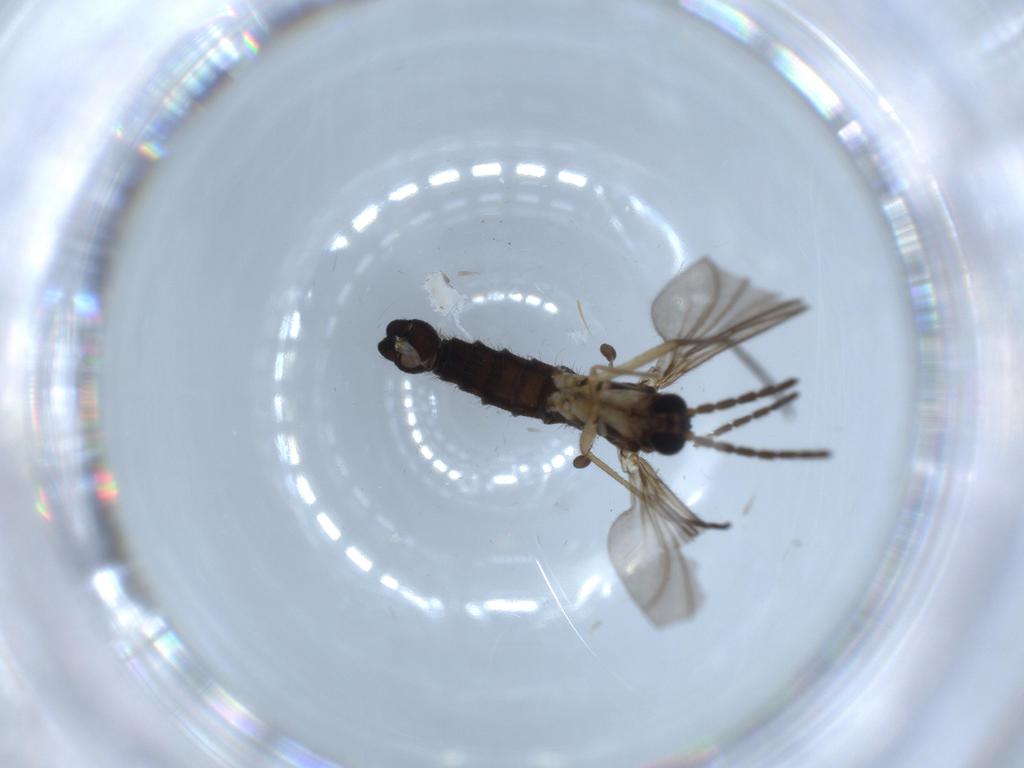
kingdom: Animalia
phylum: Arthropoda
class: Insecta
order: Diptera
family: Sciaridae
